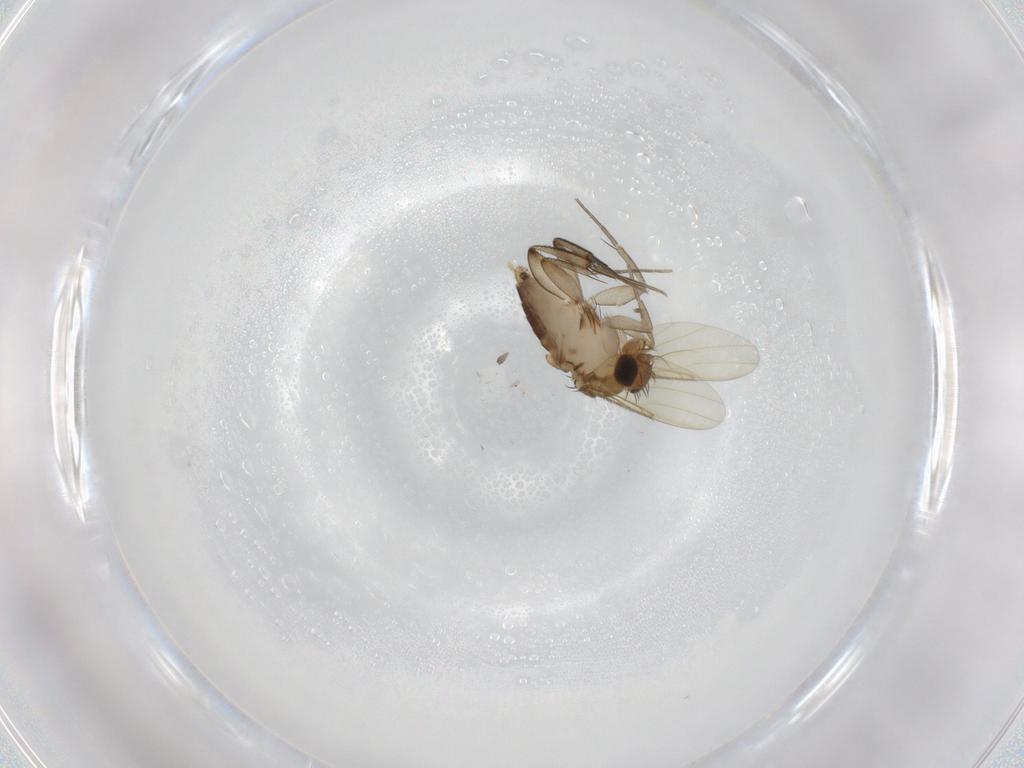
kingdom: Animalia
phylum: Arthropoda
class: Insecta
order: Diptera
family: Phoridae
